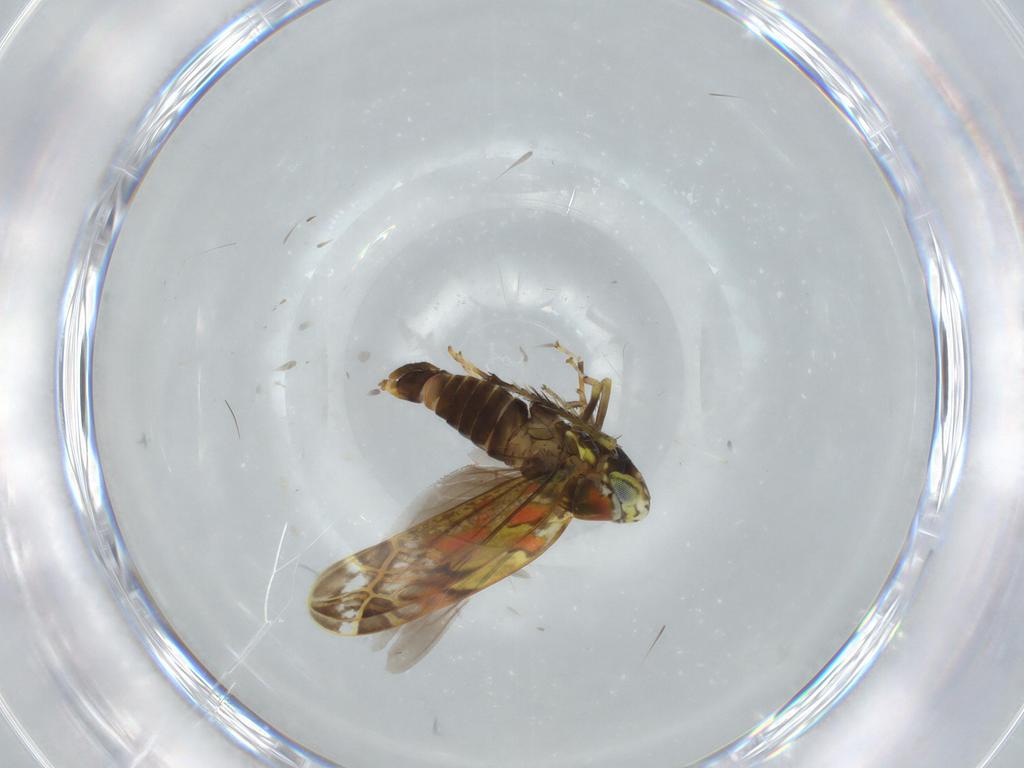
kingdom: Animalia
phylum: Arthropoda
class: Insecta
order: Hemiptera
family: Cicadellidae
